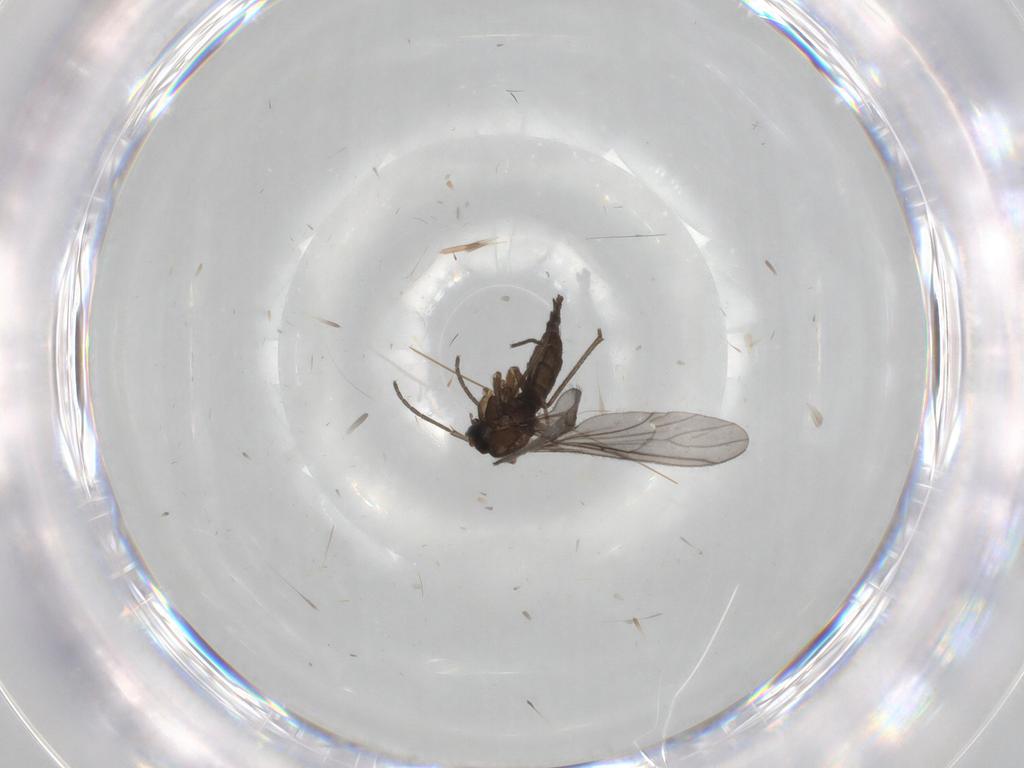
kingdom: Animalia
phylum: Arthropoda
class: Insecta
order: Diptera
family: Sciaridae
